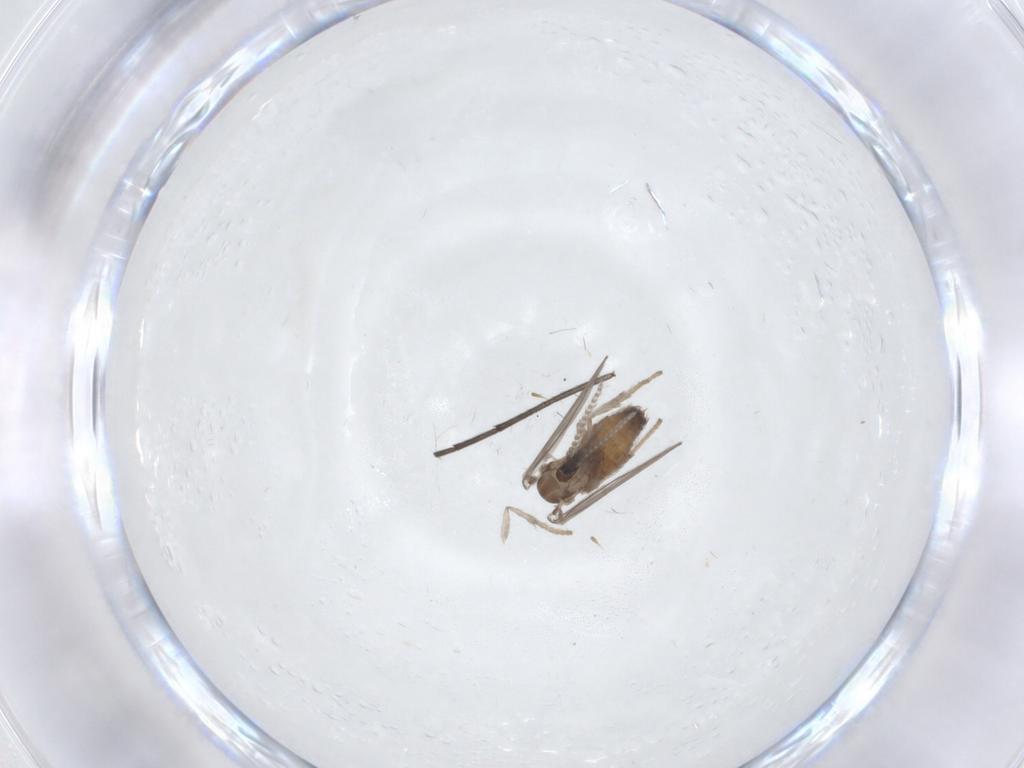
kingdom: Animalia
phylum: Arthropoda
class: Insecta
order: Diptera
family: Psychodidae
